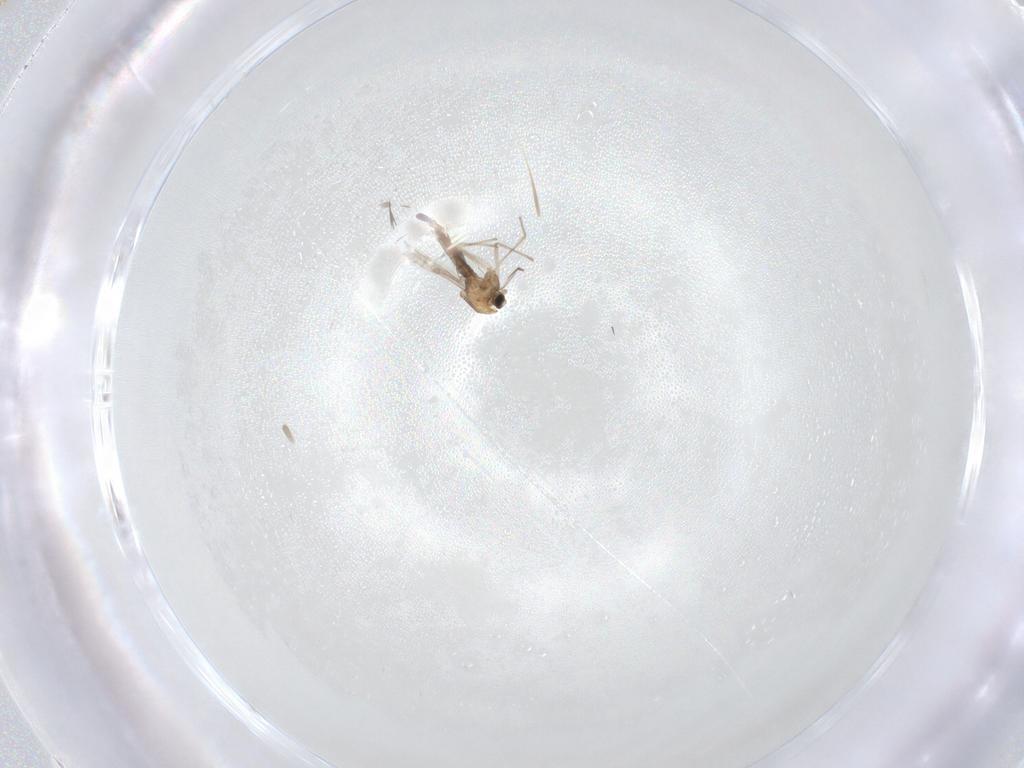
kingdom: Animalia
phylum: Arthropoda
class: Insecta
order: Diptera
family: Chironomidae
